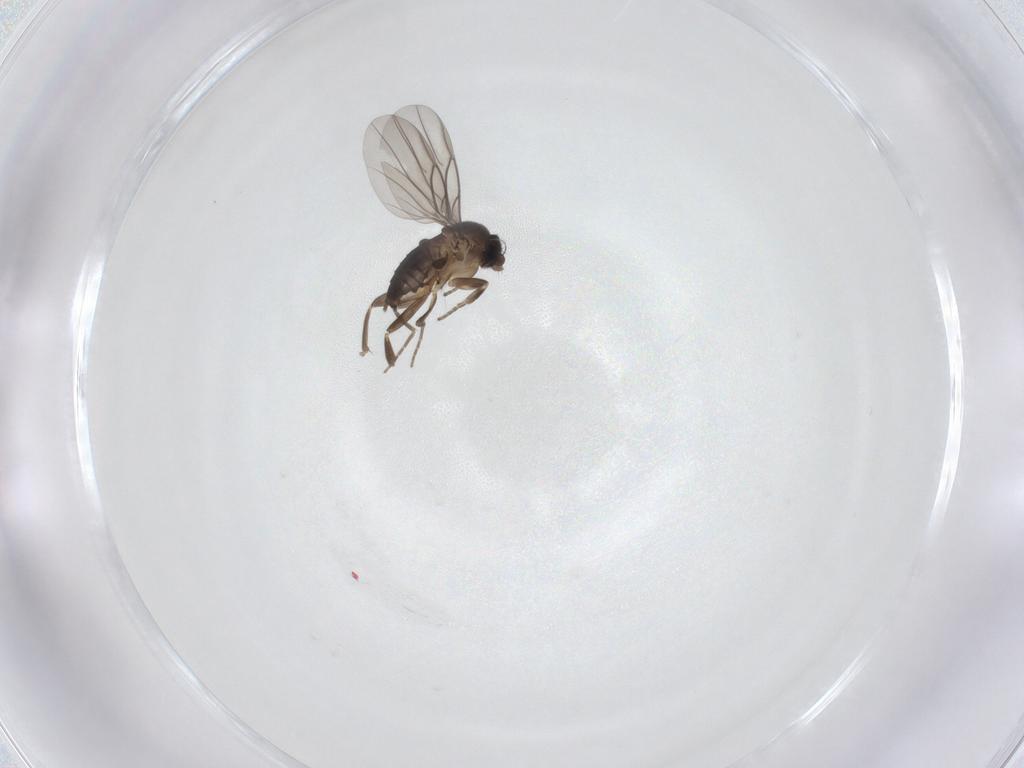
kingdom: Animalia
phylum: Arthropoda
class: Insecta
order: Diptera
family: Phoridae
